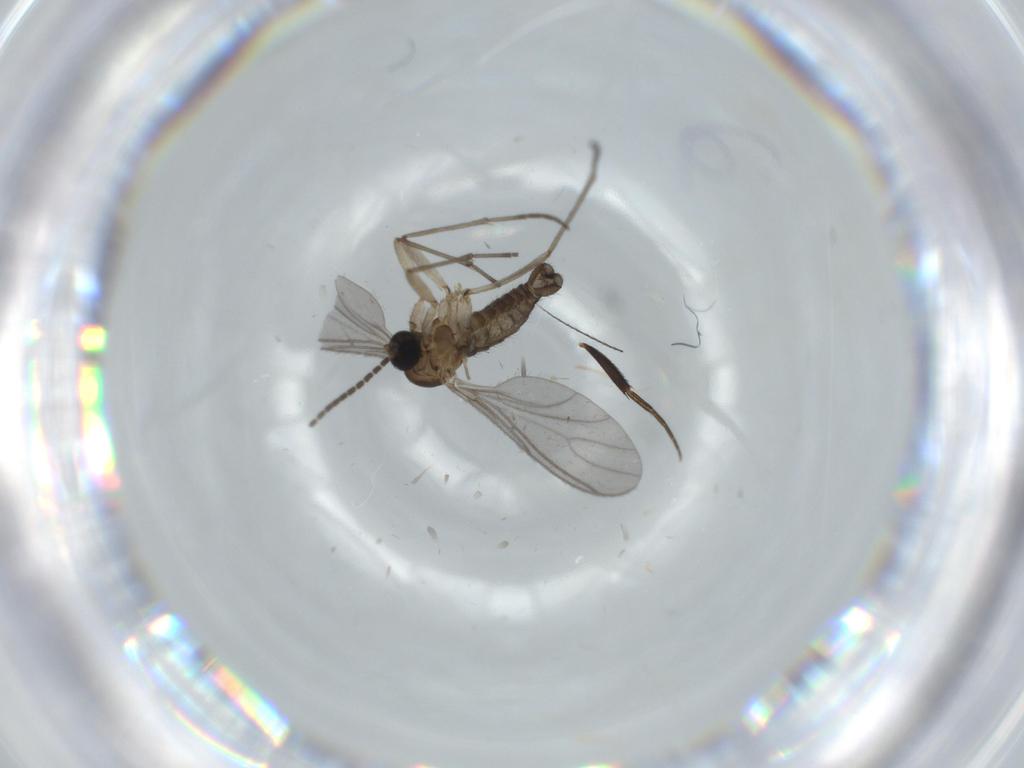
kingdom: Animalia
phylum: Arthropoda
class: Insecta
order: Diptera
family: Sciaridae
